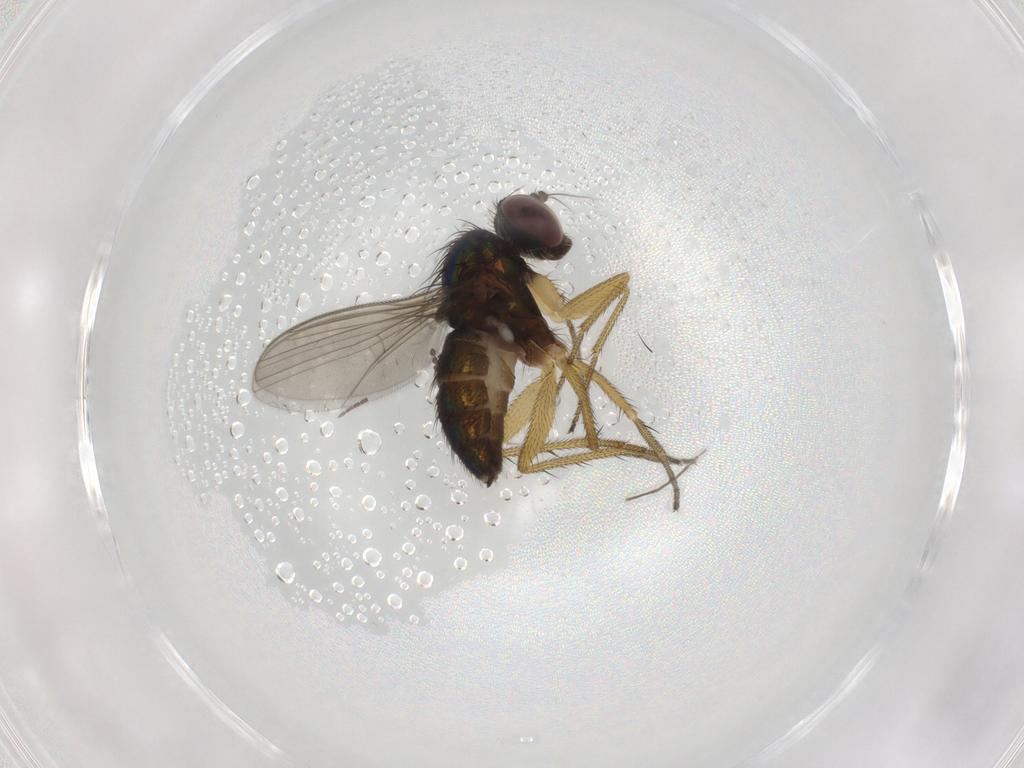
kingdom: Animalia
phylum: Arthropoda
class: Insecta
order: Diptera
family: Dolichopodidae
